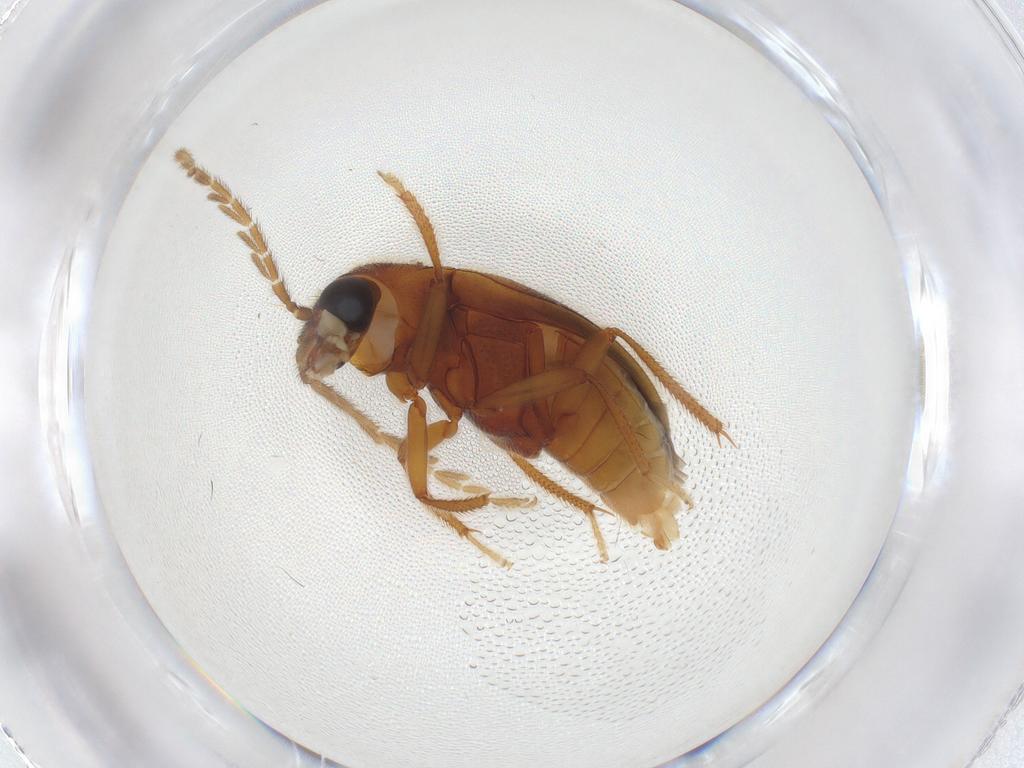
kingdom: Animalia
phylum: Arthropoda
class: Insecta
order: Coleoptera
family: Ptilodactylidae
